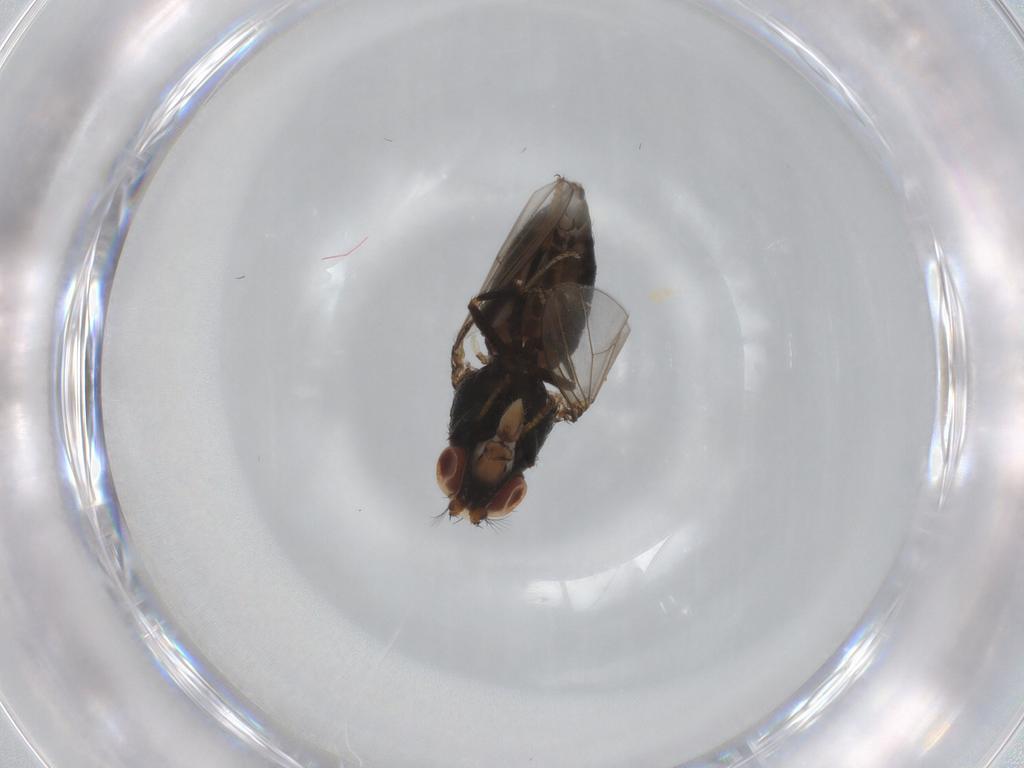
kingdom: Animalia
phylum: Arthropoda
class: Insecta
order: Diptera
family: Ephydridae
